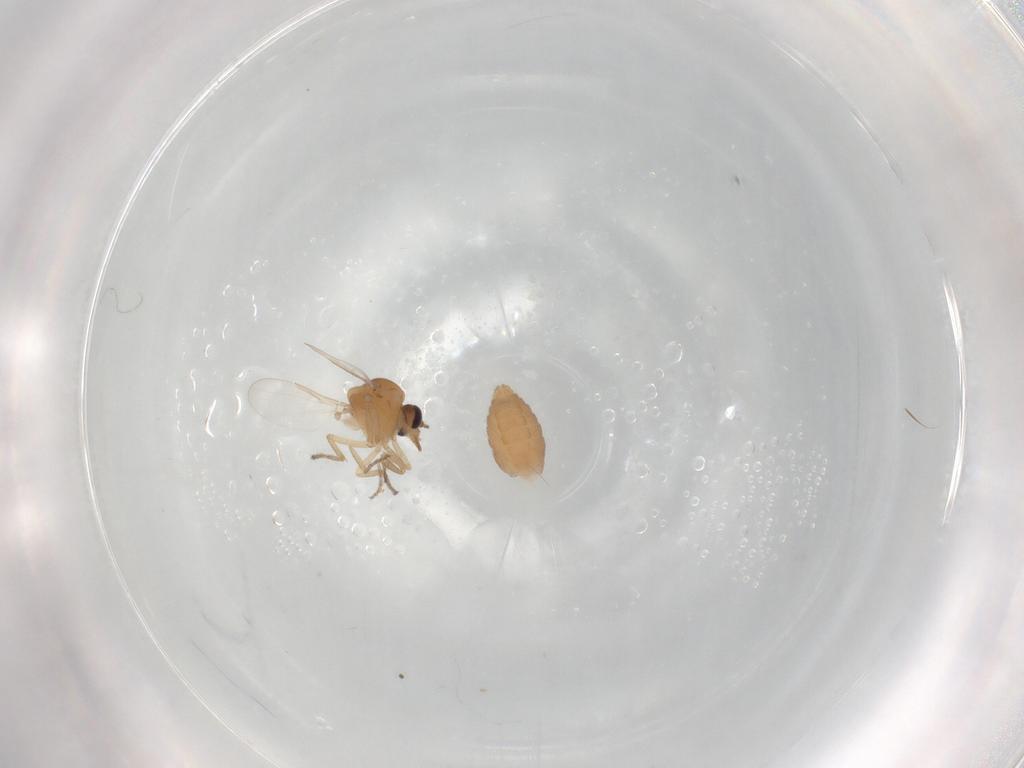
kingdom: Animalia
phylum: Arthropoda
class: Insecta
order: Diptera
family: Ceratopogonidae
